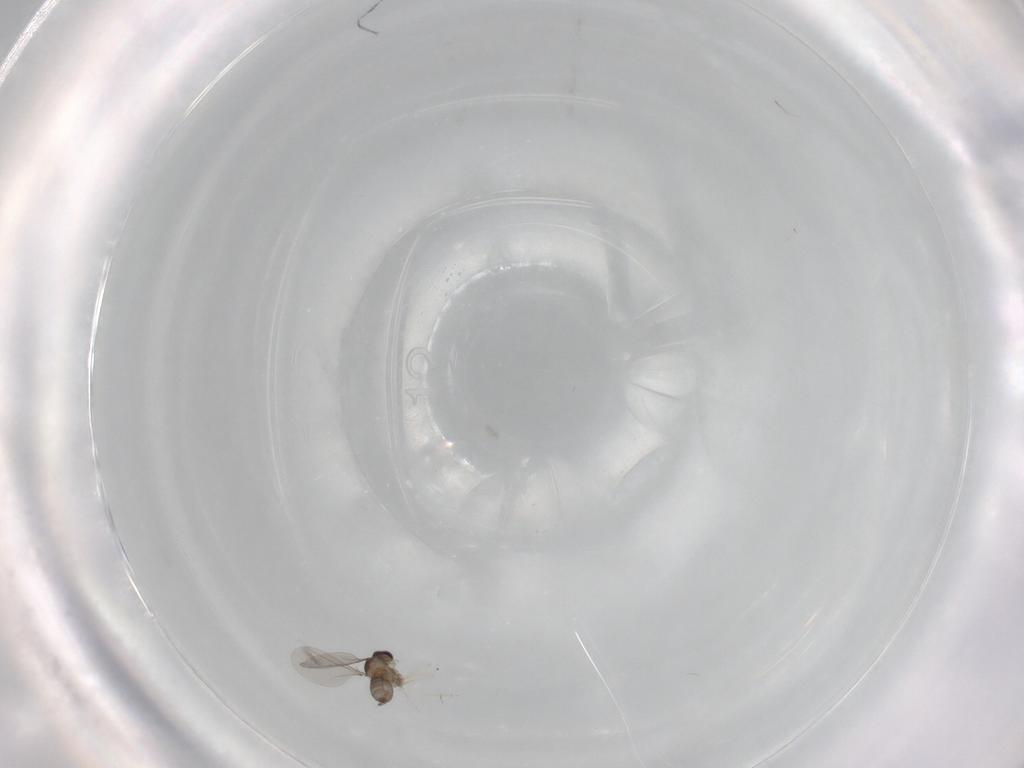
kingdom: Animalia
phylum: Arthropoda
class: Insecta
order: Diptera
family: Cecidomyiidae
